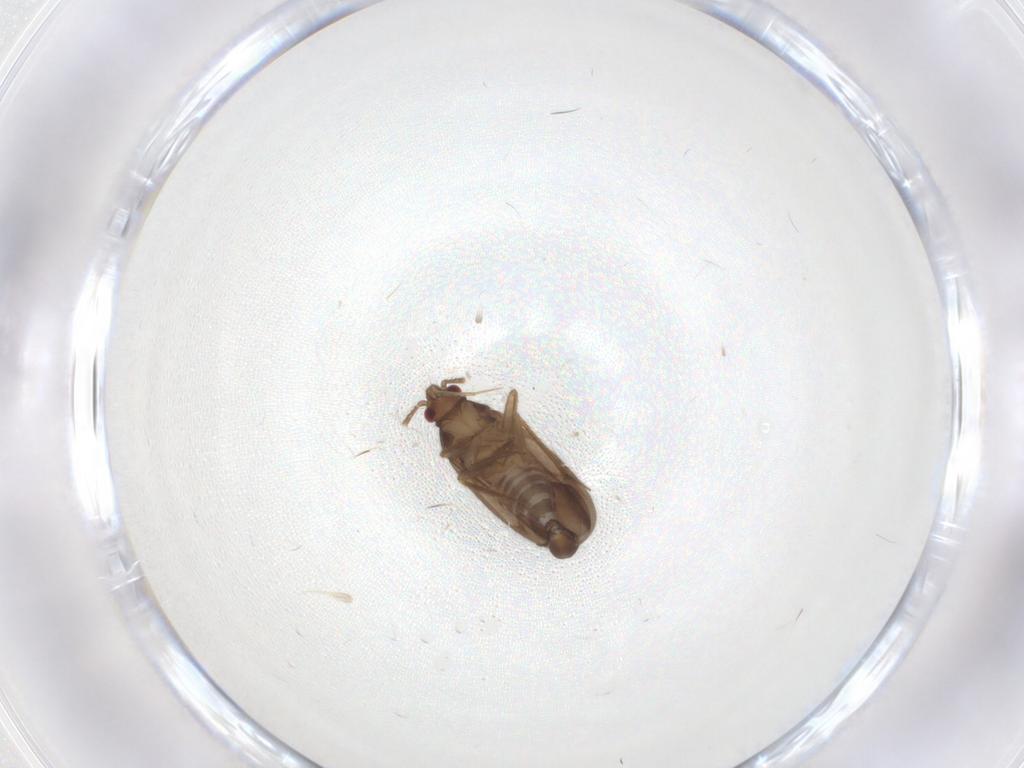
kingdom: Animalia
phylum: Arthropoda
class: Insecta
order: Hemiptera
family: Ceratocombidae
